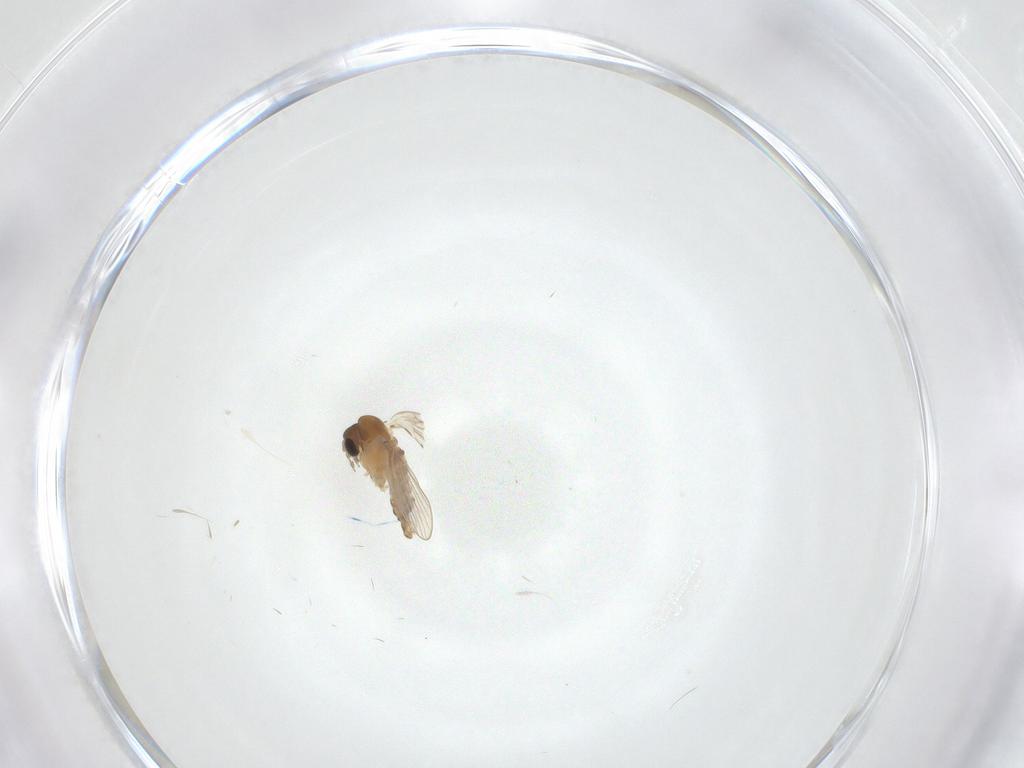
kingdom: Animalia
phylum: Arthropoda
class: Insecta
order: Diptera
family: Psychodidae
